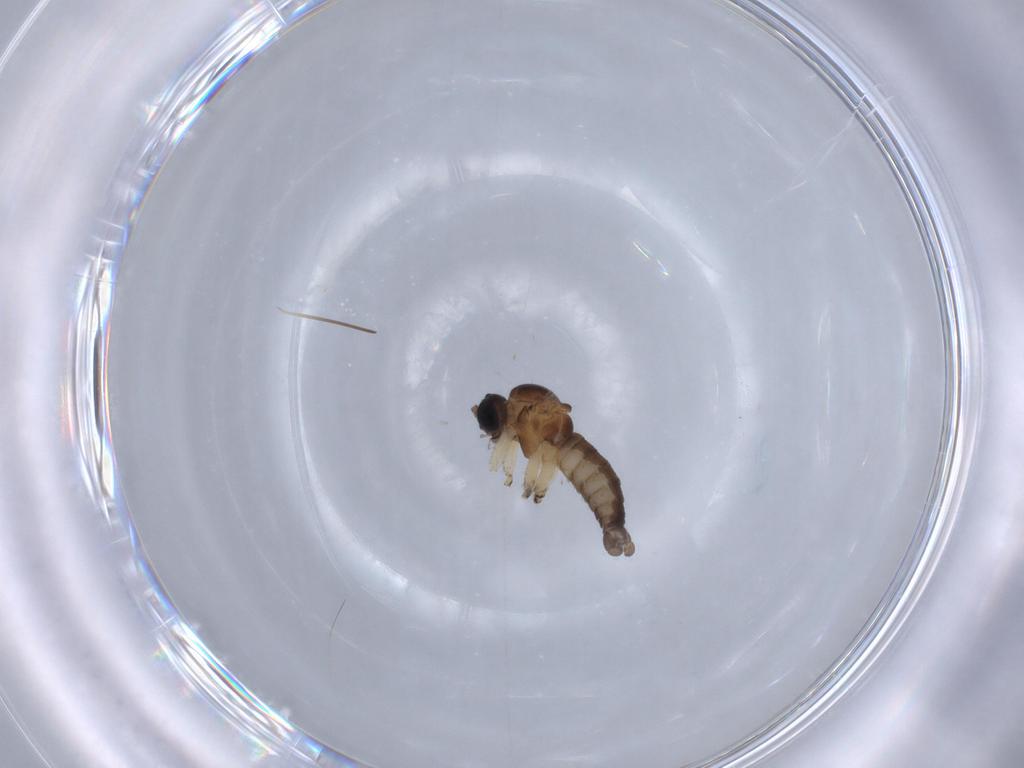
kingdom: Animalia
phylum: Arthropoda
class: Insecta
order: Diptera
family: Sciaridae
